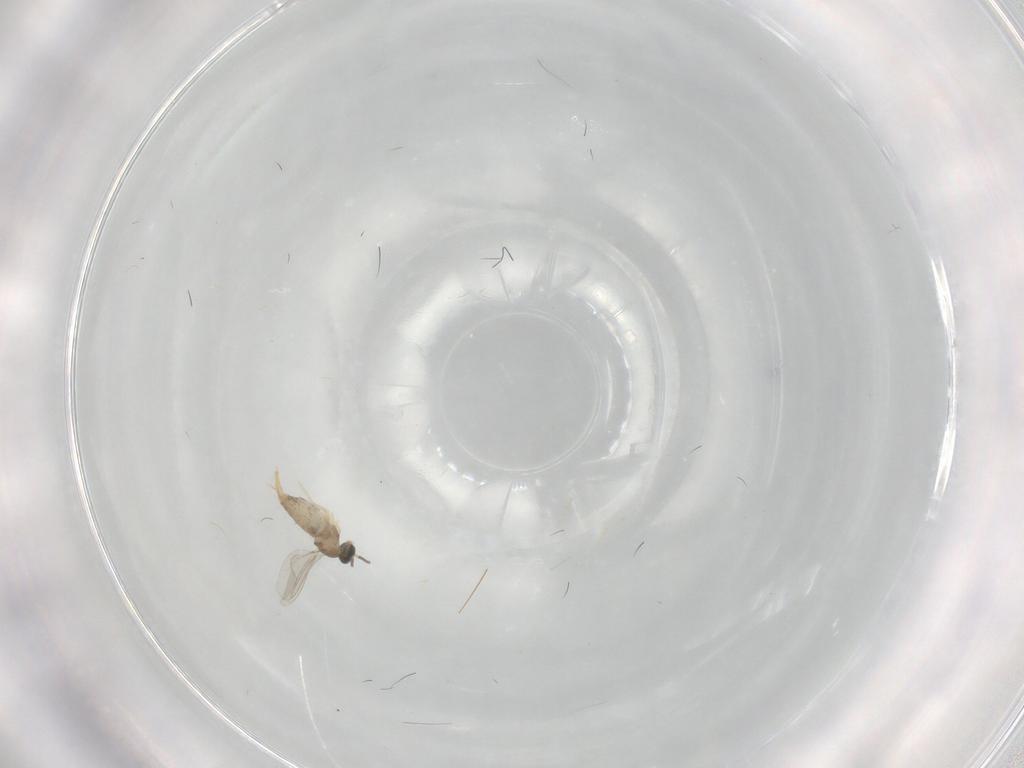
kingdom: Animalia
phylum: Arthropoda
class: Insecta
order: Diptera
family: Cecidomyiidae
